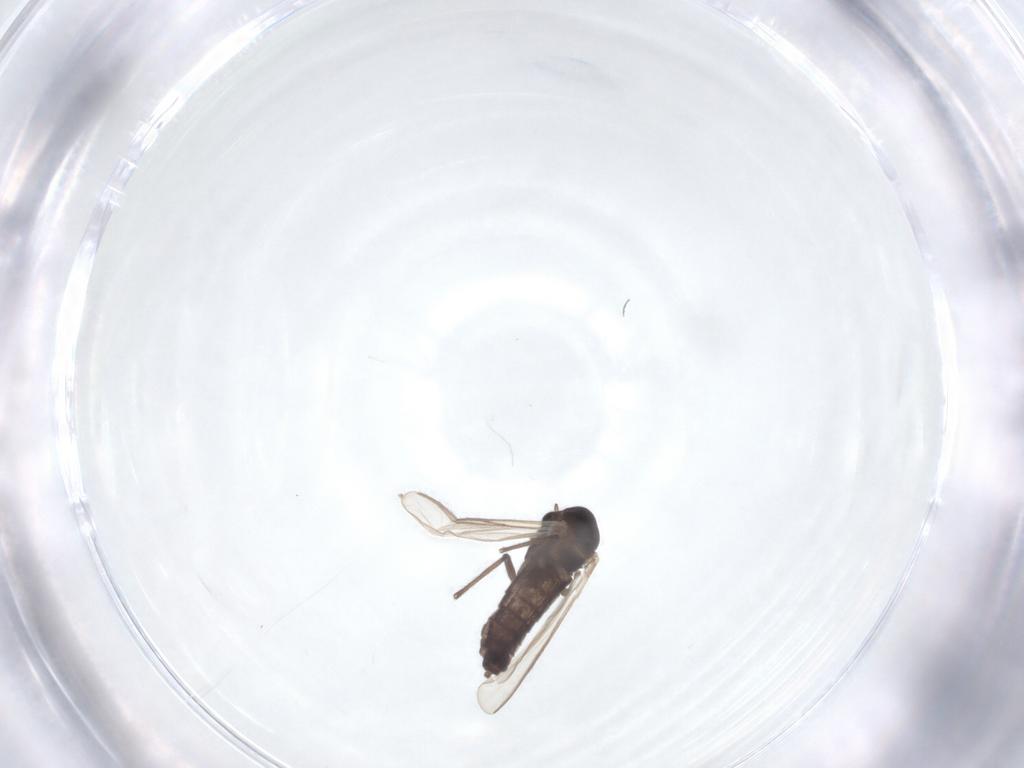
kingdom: Animalia
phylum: Arthropoda
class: Insecta
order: Diptera
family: Chironomidae
